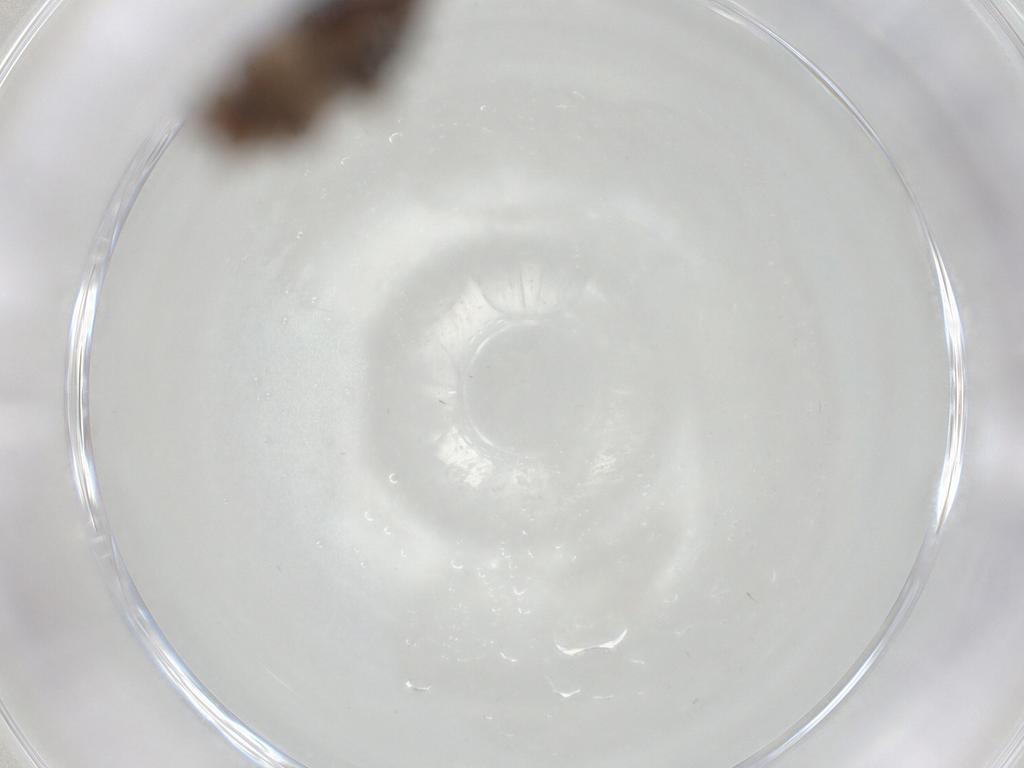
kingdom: Animalia
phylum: Arthropoda
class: Insecta
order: Hemiptera
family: Delphacidae
